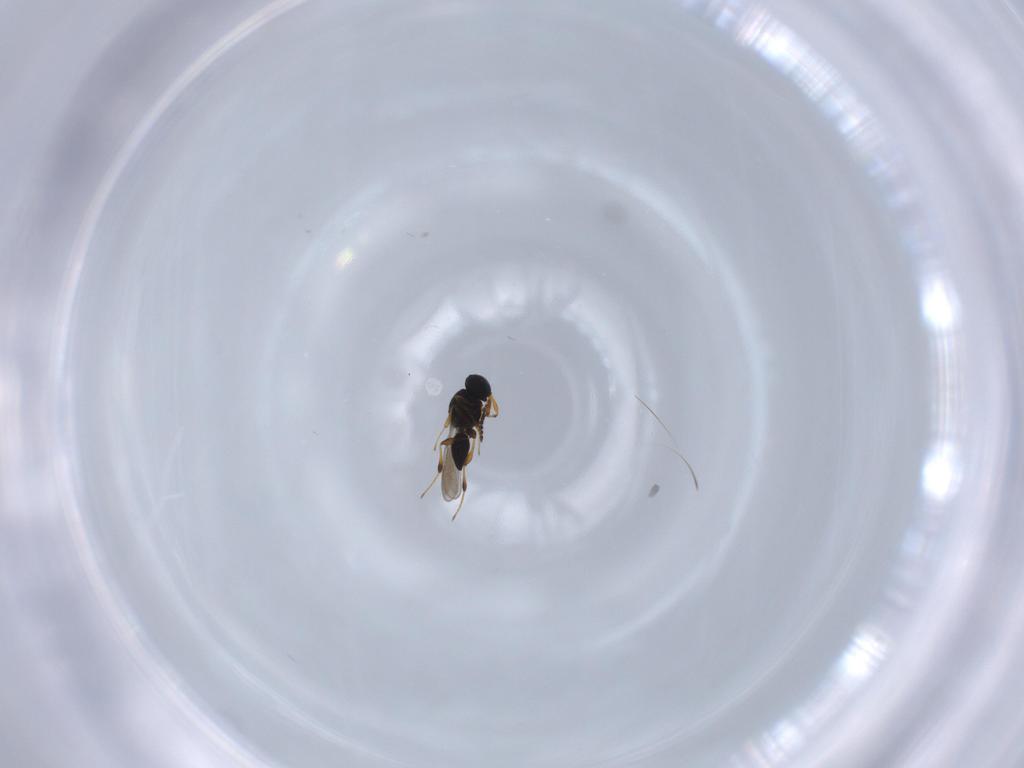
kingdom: Animalia
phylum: Arthropoda
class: Insecta
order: Hymenoptera
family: Platygastridae
